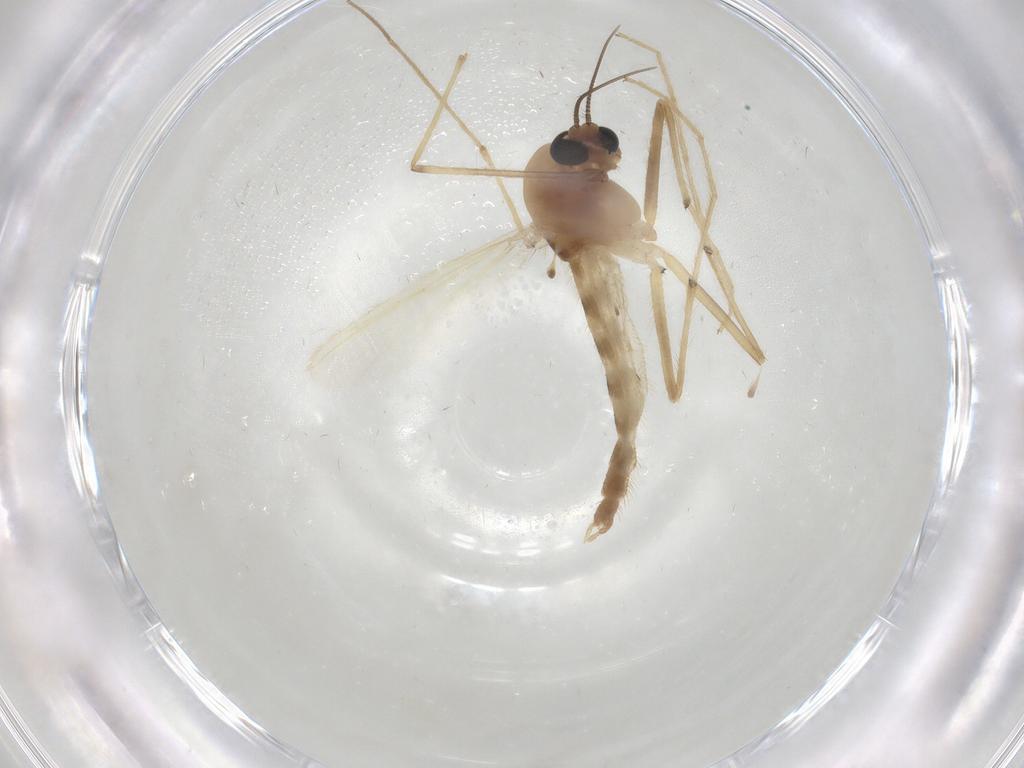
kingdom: Animalia
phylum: Arthropoda
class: Insecta
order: Diptera
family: Chironomidae
